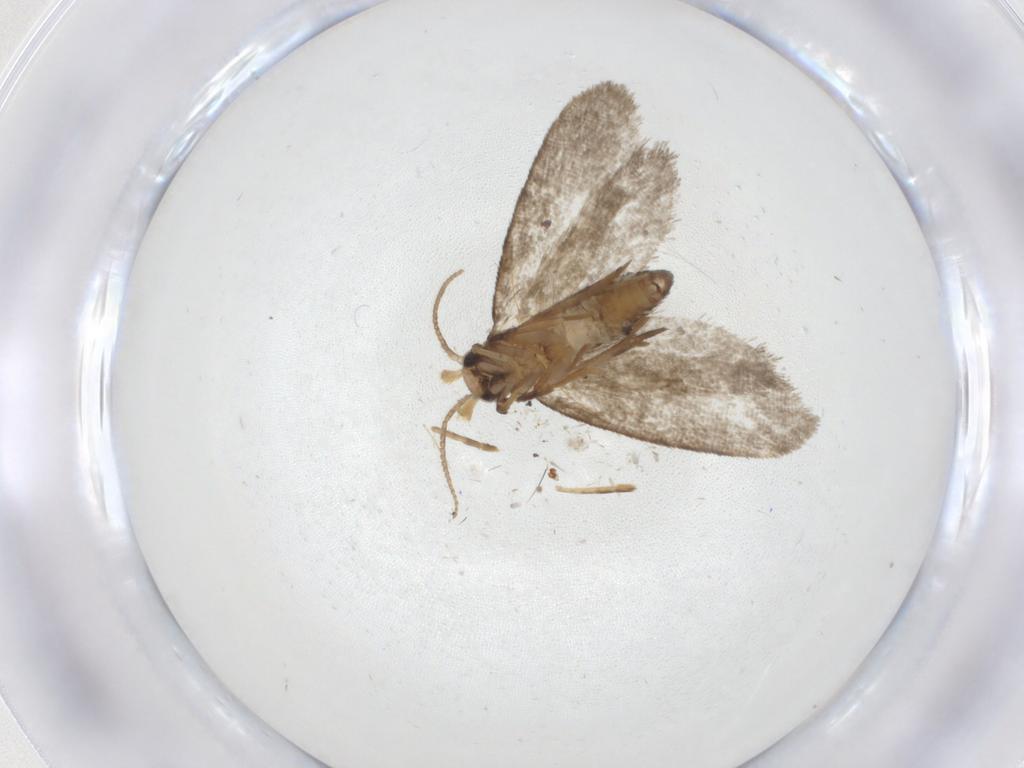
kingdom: Animalia
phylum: Arthropoda
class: Insecta
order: Lepidoptera
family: Psychidae
